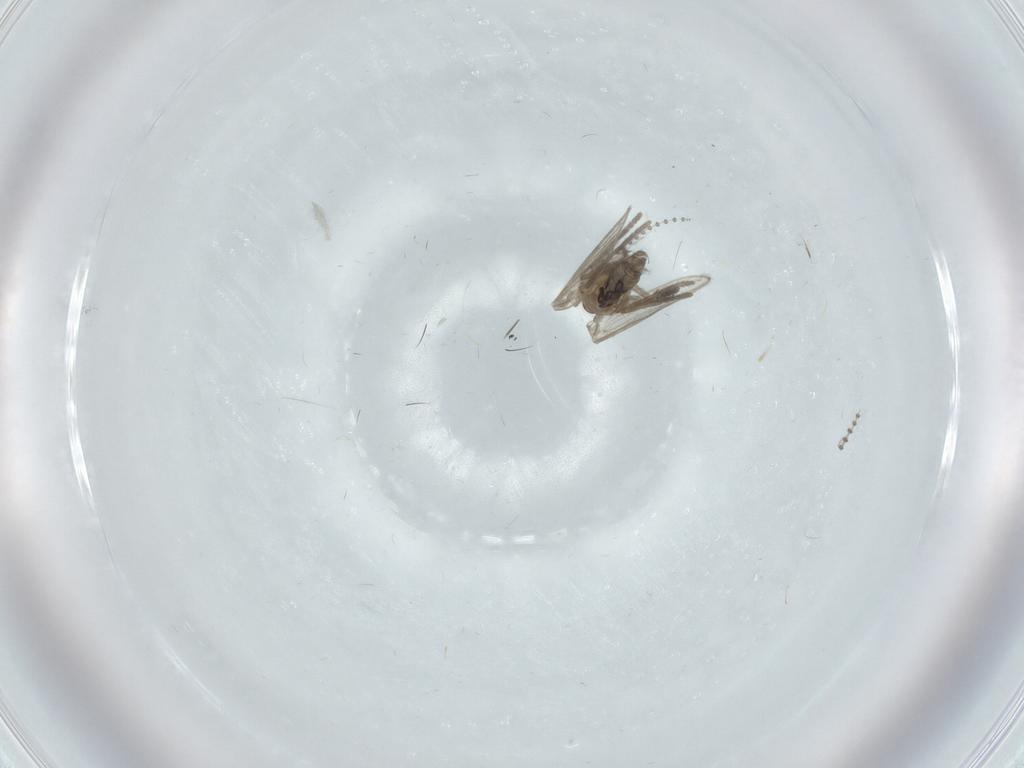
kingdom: Animalia
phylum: Arthropoda
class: Insecta
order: Diptera
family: Psychodidae
